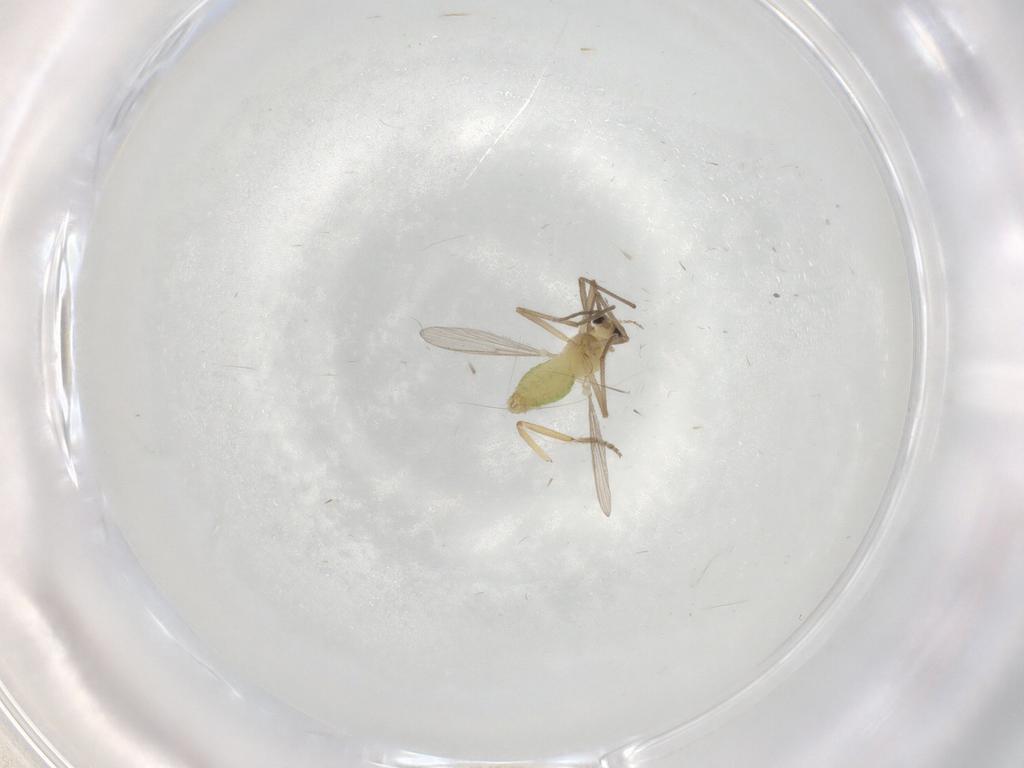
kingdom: Animalia
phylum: Arthropoda
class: Insecta
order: Diptera
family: Chironomidae
